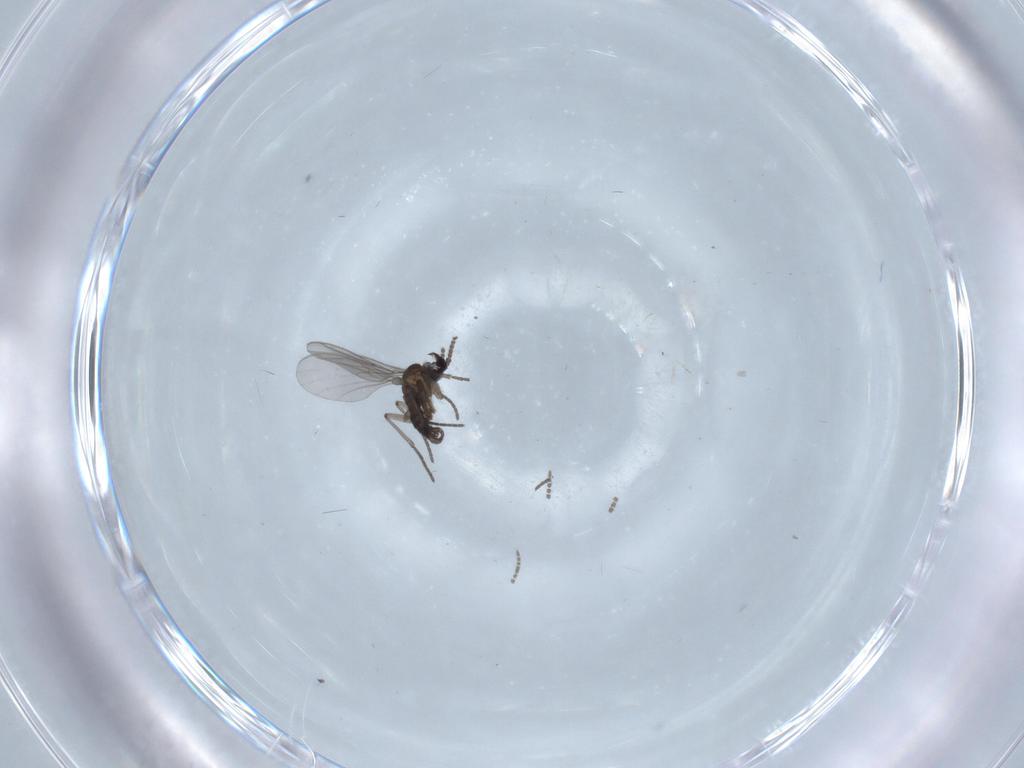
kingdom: Animalia
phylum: Arthropoda
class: Insecta
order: Diptera
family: Cecidomyiidae
